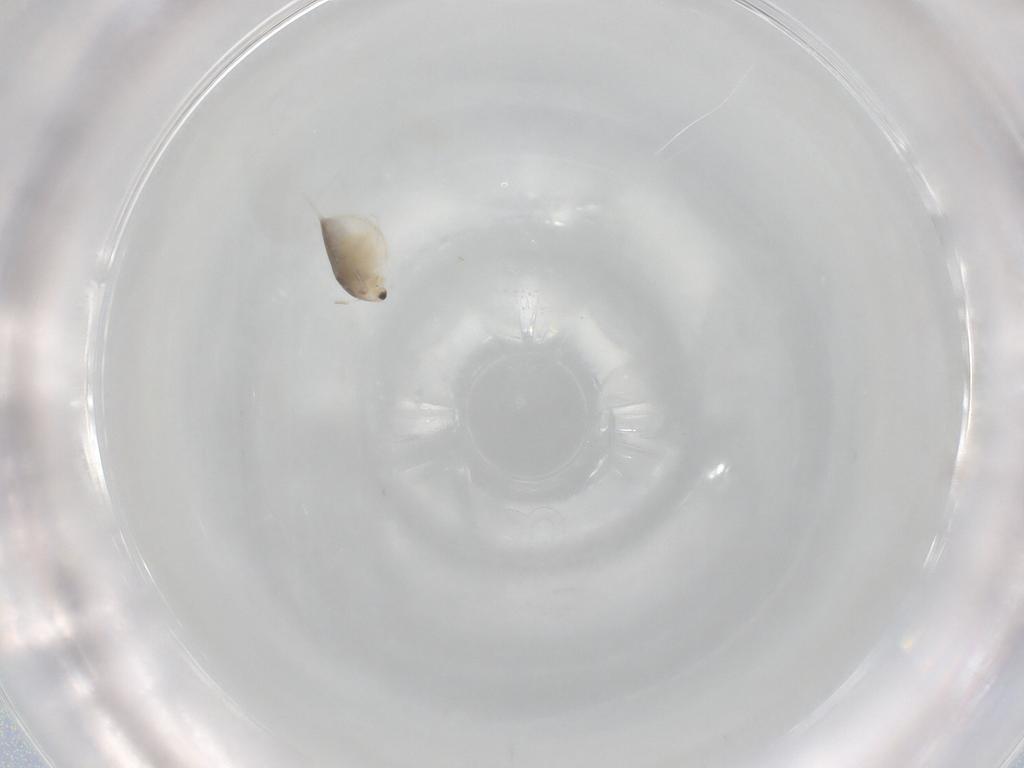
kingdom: Animalia
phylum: Arthropoda
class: Branchiopoda
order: Diplostraca
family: Daphniidae
